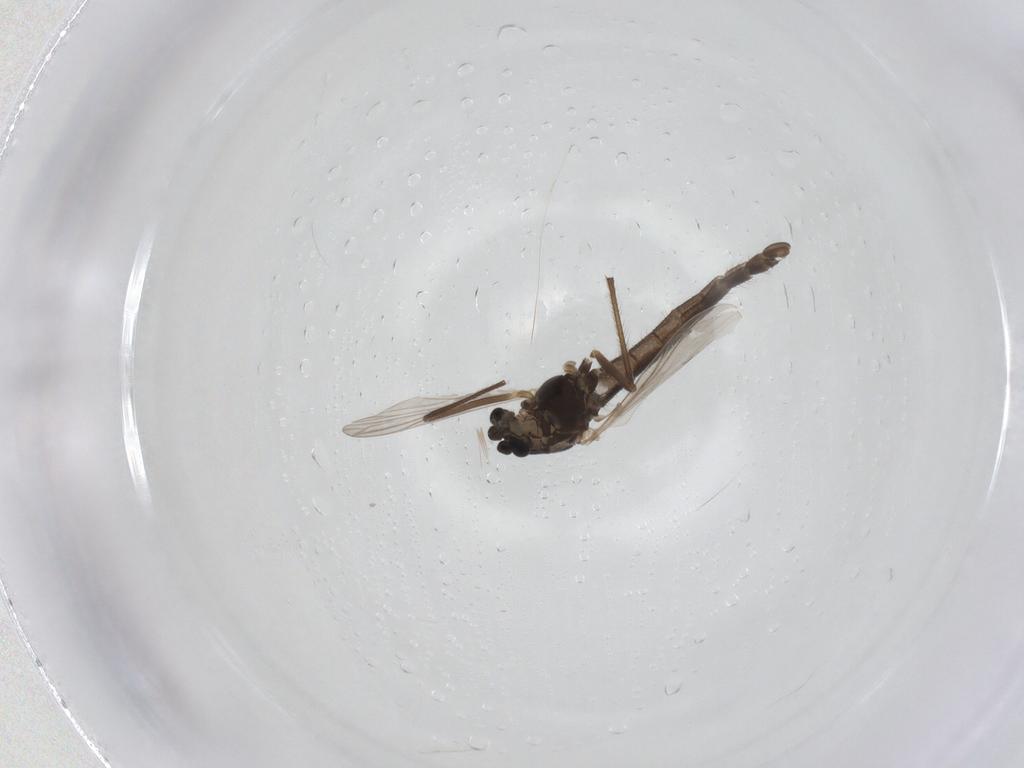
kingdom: Animalia
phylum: Arthropoda
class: Insecta
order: Diptera
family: Chironomidae
